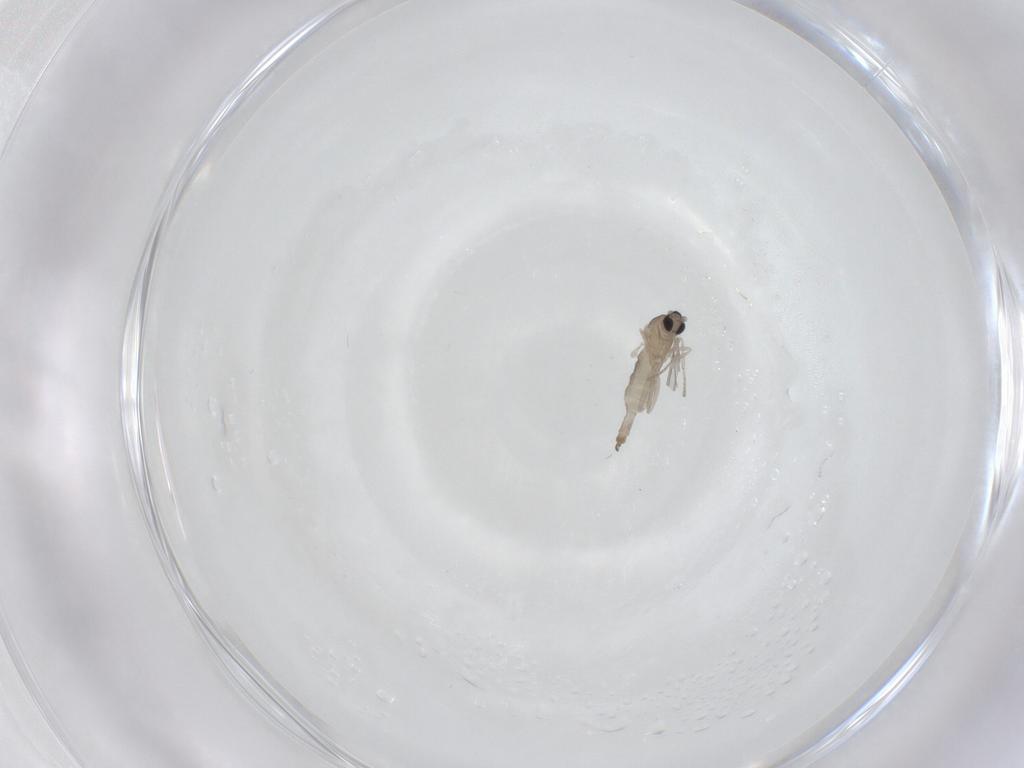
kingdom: Animalia
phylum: Arthropoda
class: Insecta
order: Diptera
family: Cecidomyiidae
